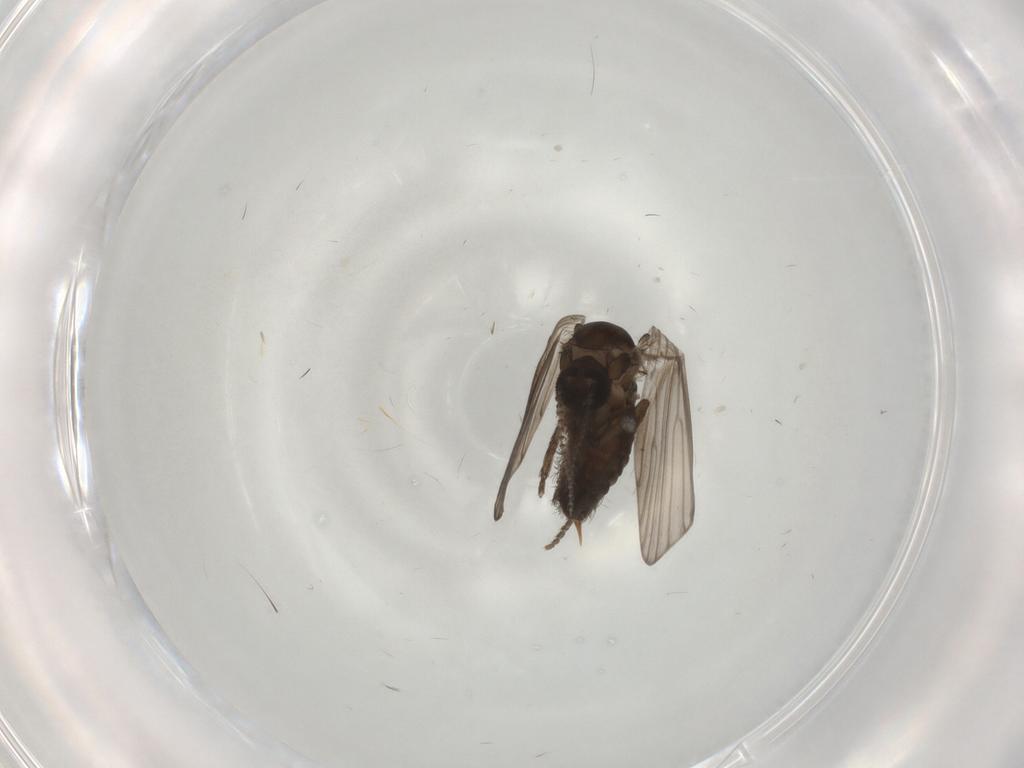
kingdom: Animalia
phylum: Arthropoda
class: Insecta
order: Diptera
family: Psychodidae
